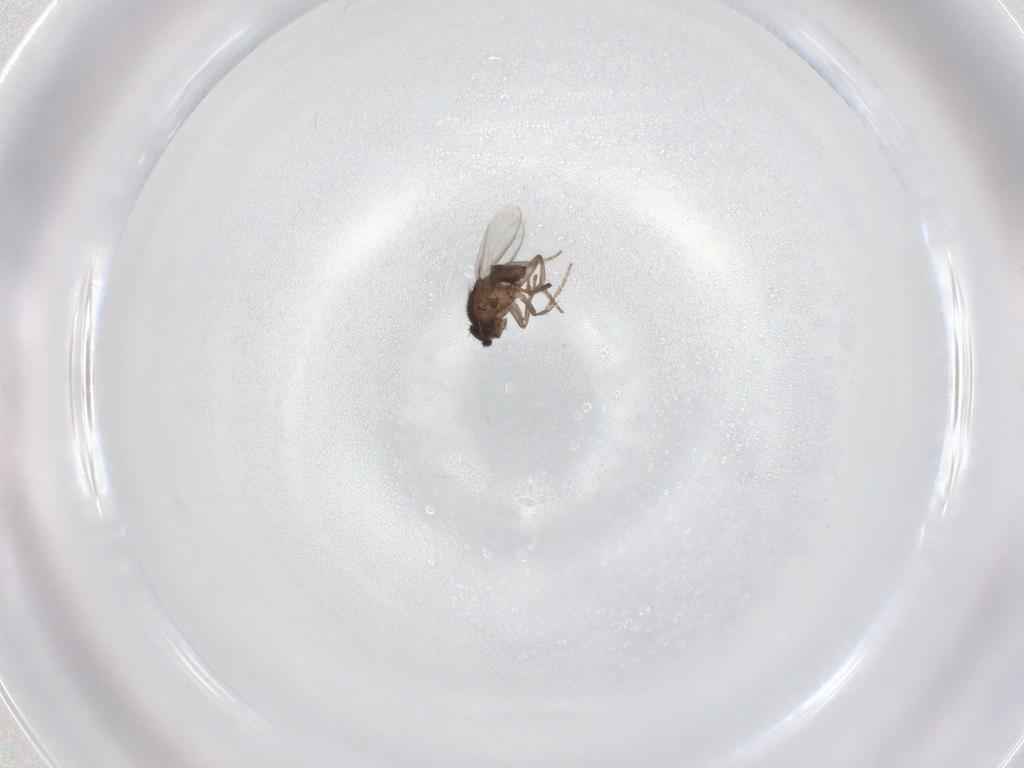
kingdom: Animalia
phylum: Arthropoda
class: Insecta
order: Diptera
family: Sphaeroceridae
